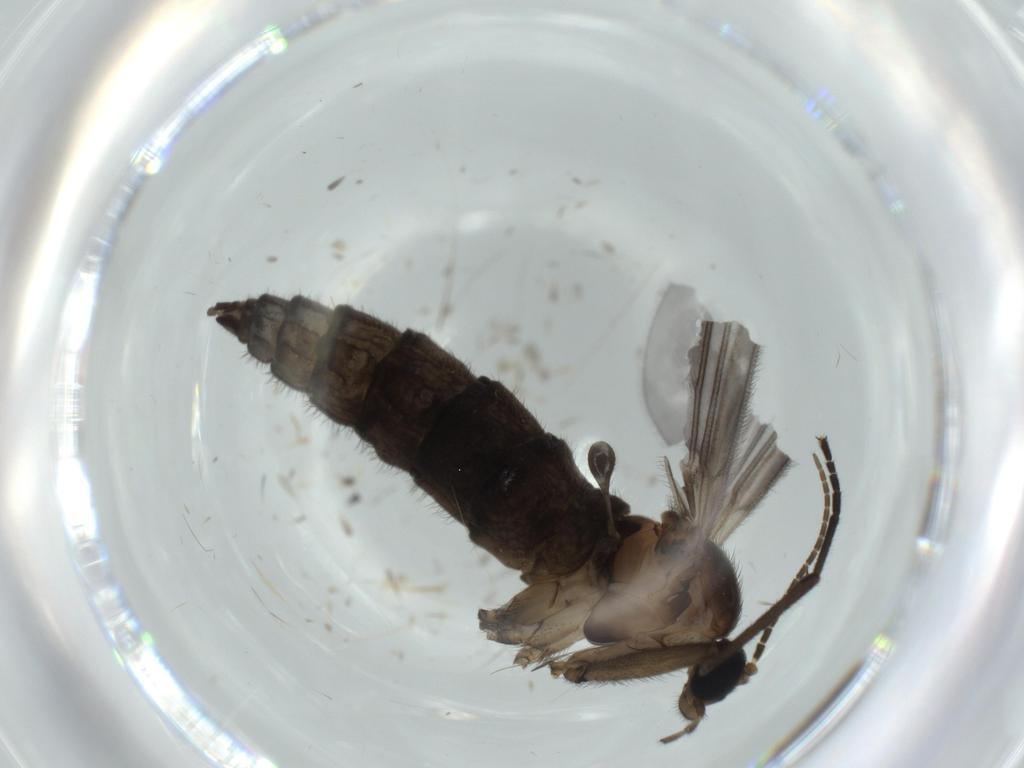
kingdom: Animalia
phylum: Arthropoda
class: Insecta
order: Diptera
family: Sciaridae
